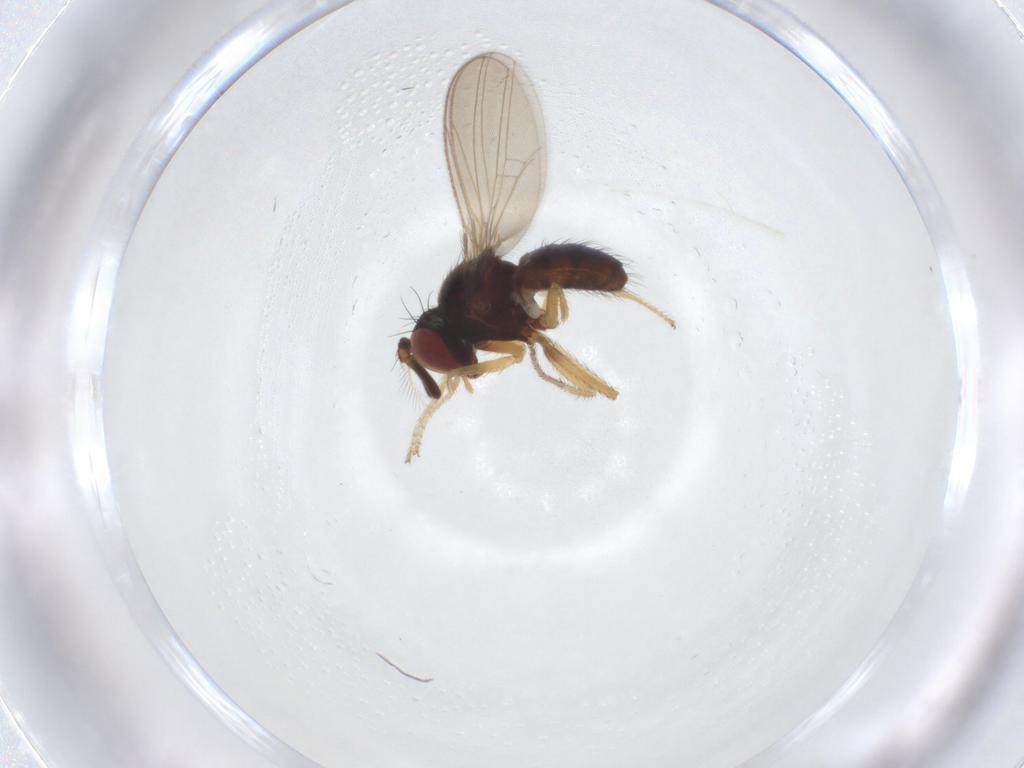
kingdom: Animalia
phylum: Arthropoda
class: Insecta
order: Diptera
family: Ephydridae
